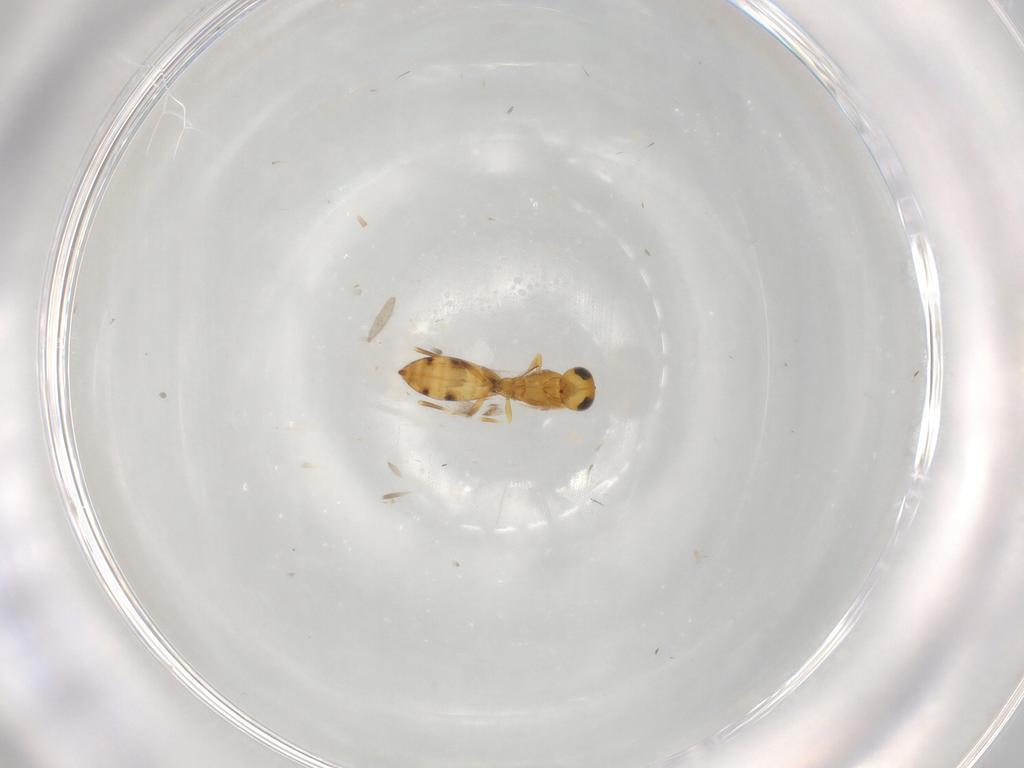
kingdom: Animalia
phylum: Arthropoda
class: Insecta
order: Hymenoptera
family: Scelionidae
